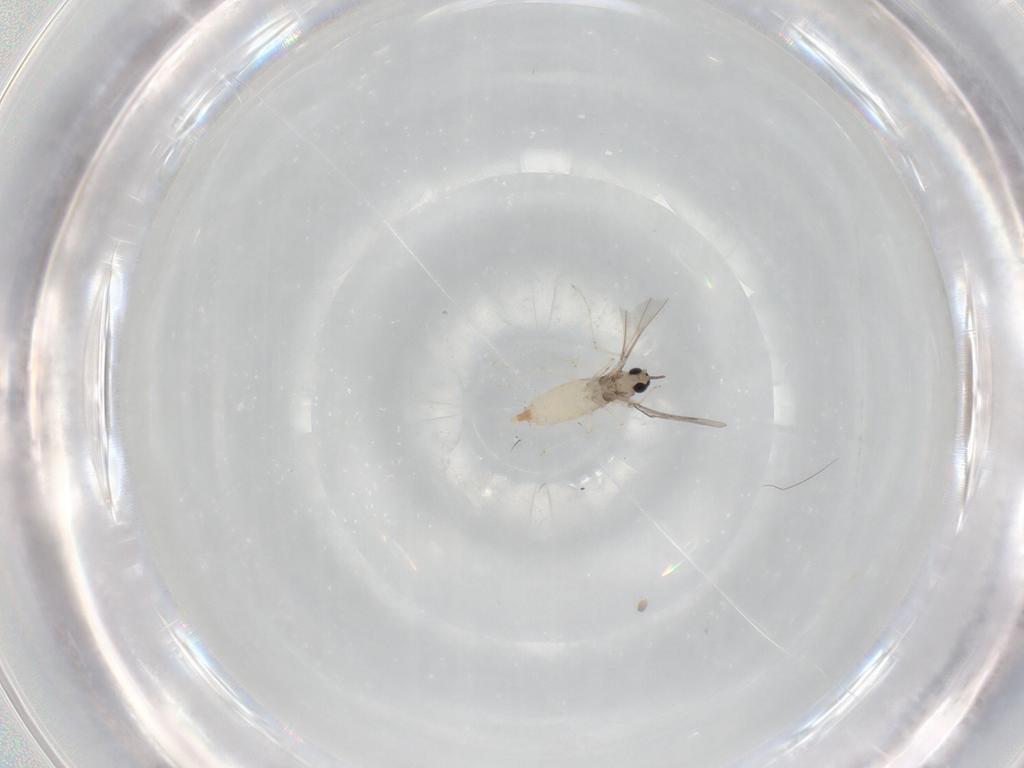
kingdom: Animalia
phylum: Arthropoda
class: Insecta
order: Diptera
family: Cecidomyiidae
